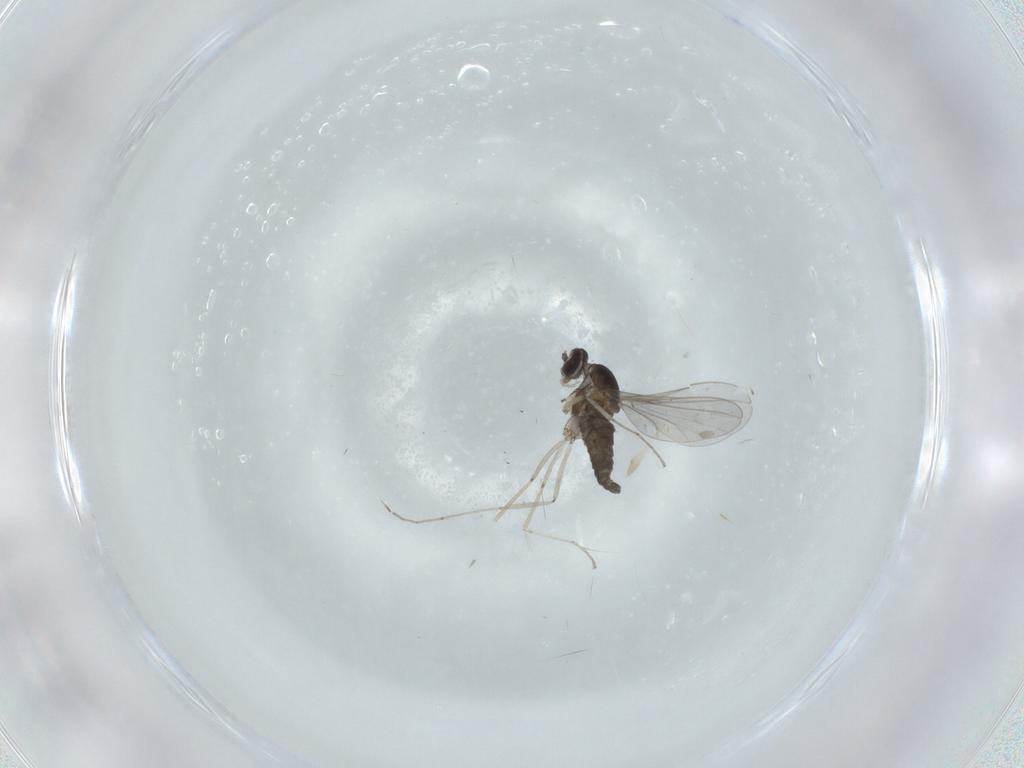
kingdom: Animalia
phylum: Arthropoda
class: Insecta
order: Diptera
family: Cecidomyiidae
